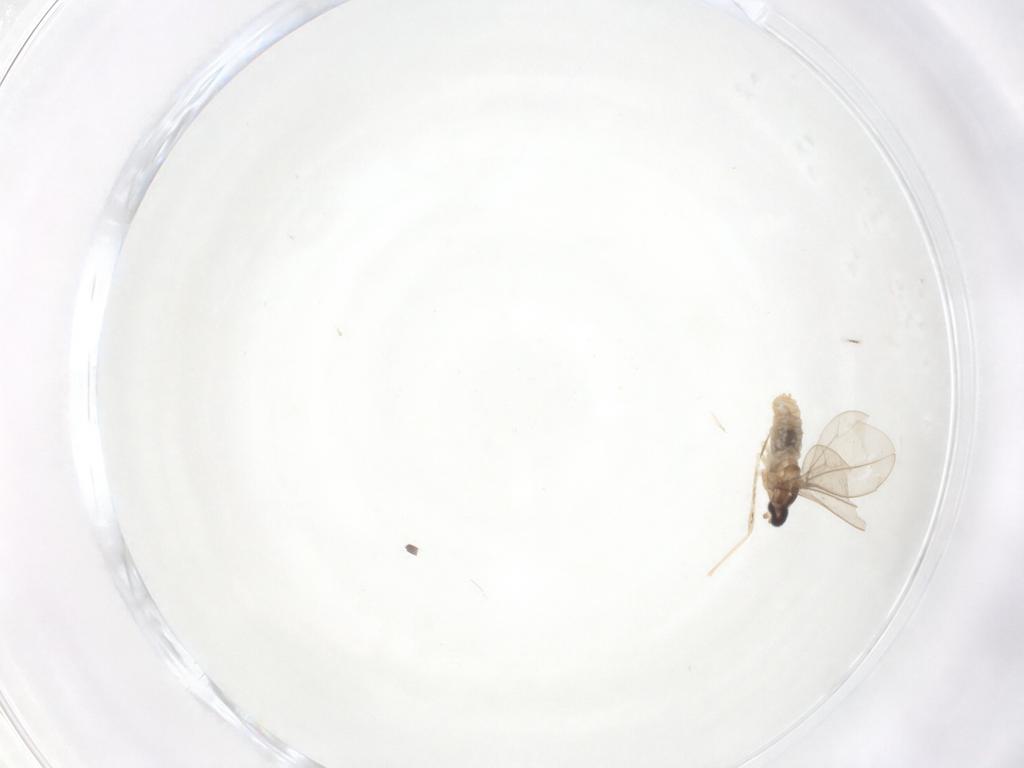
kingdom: Animalia
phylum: Arthropoda
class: Insecta
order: Diptera
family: Cecidomyiidae
